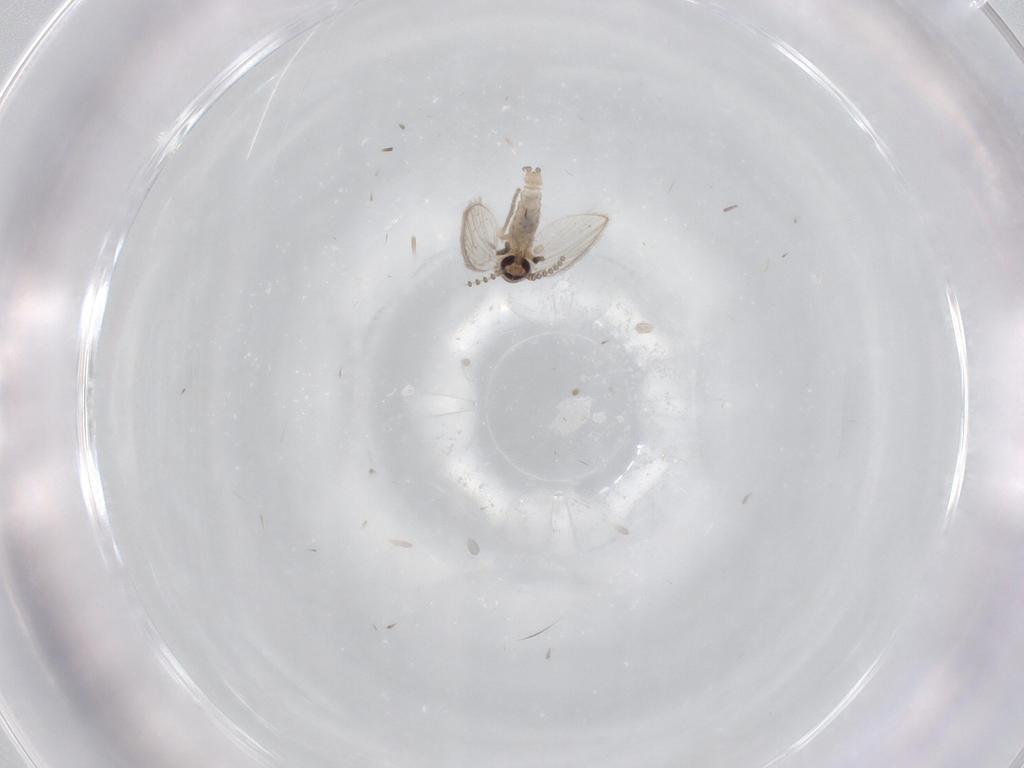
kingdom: Animalia
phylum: Arthropoda
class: Insecta
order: Diptera
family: Psychodidae
